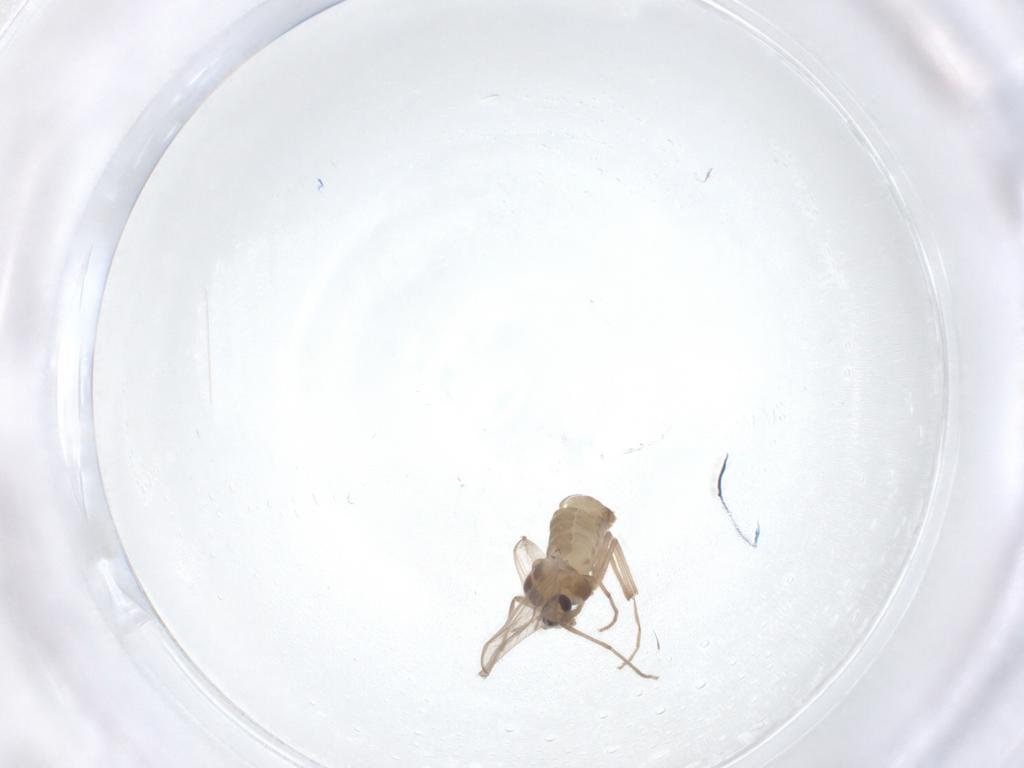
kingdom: Animalia
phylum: Arthropoda
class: Insecta
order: Diptera
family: Chironomidae
